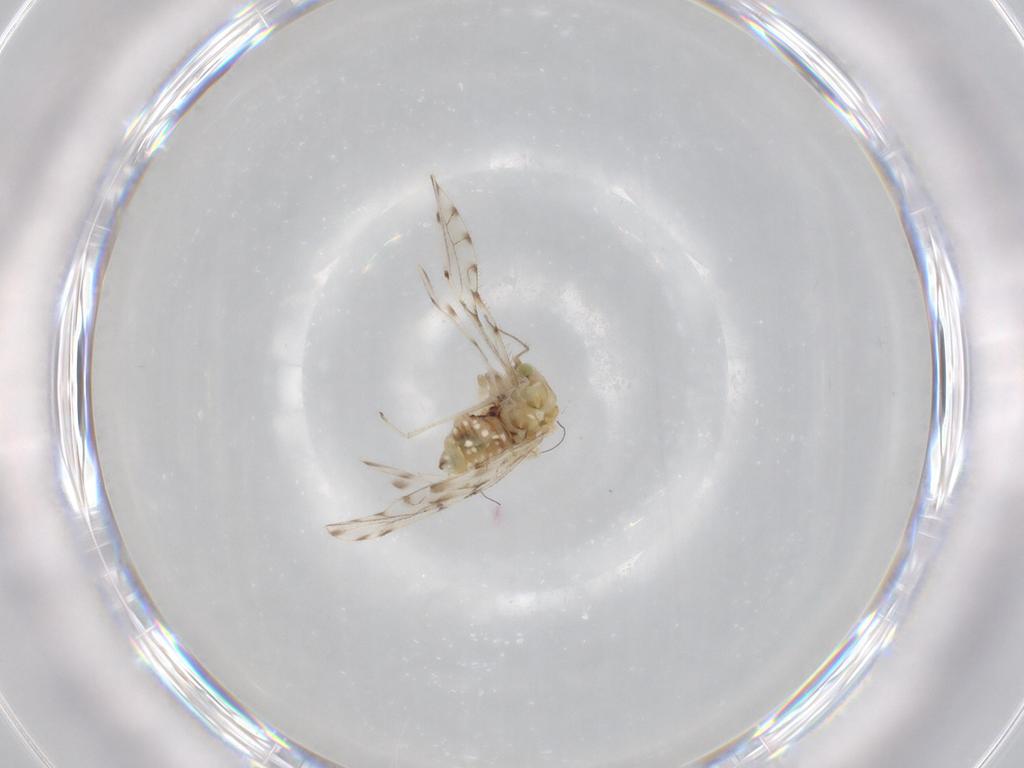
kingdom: Animalia
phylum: Arthropoda
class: Insecta
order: Psocodea
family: Ectopsocidae
